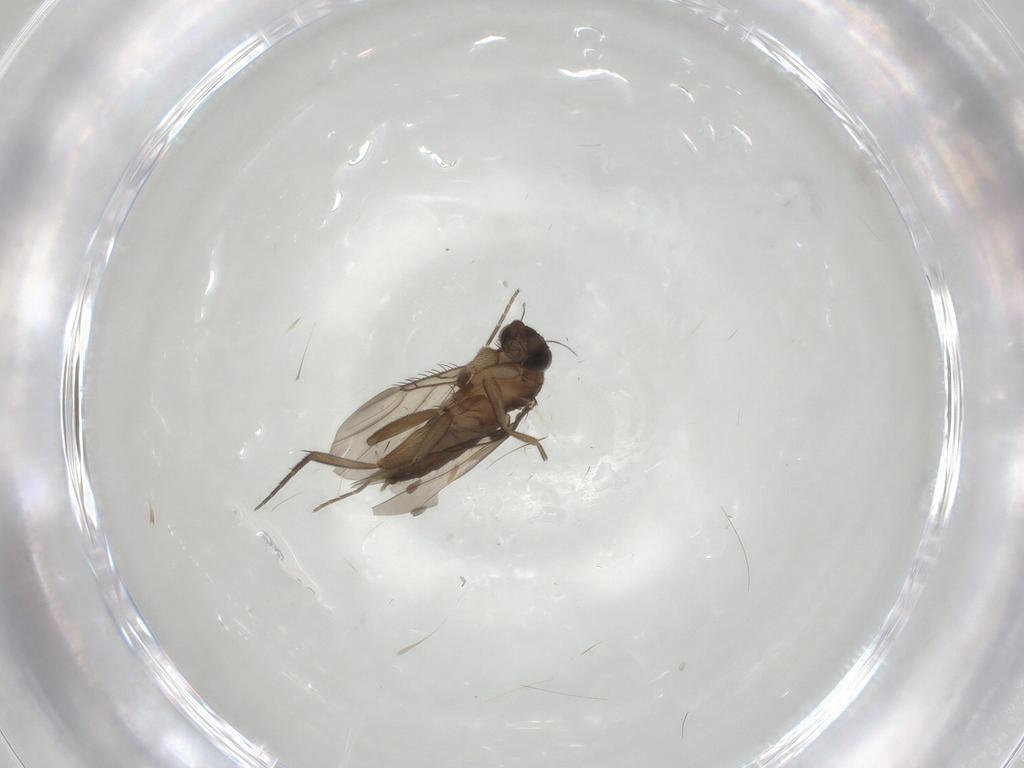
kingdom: Animalia
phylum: Arthropoda
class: Insecta
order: Diptera
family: Phoridae
